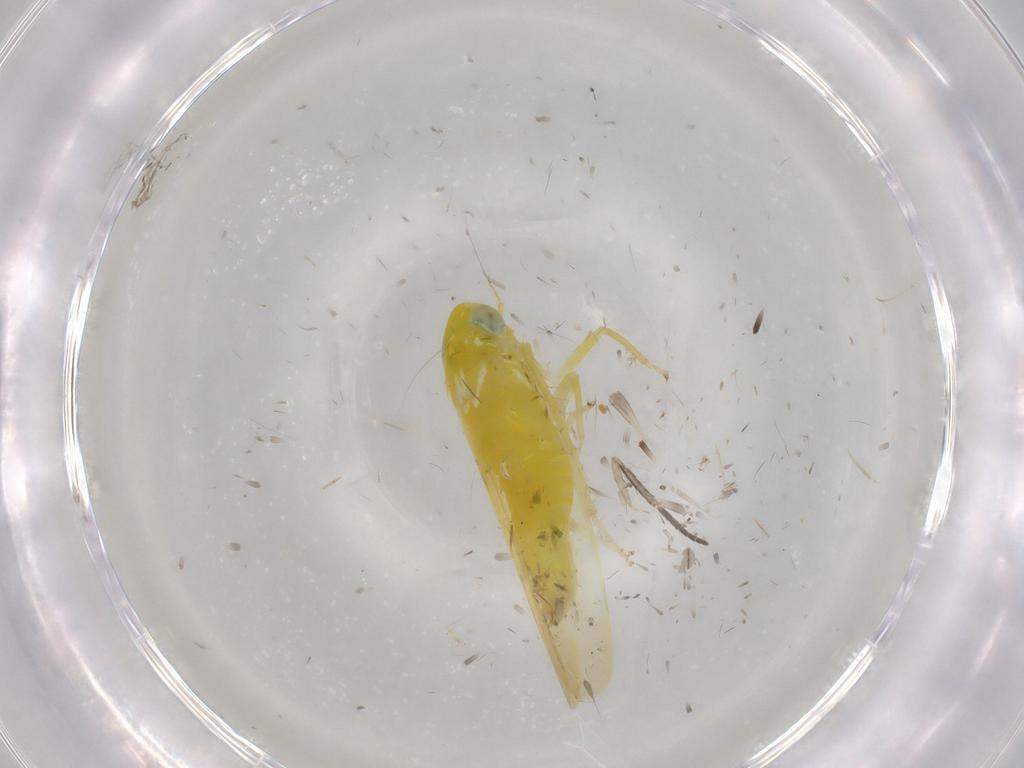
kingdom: Animalia
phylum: Arthropoda
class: Insecta
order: Hemiptera
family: Cicadellidae
